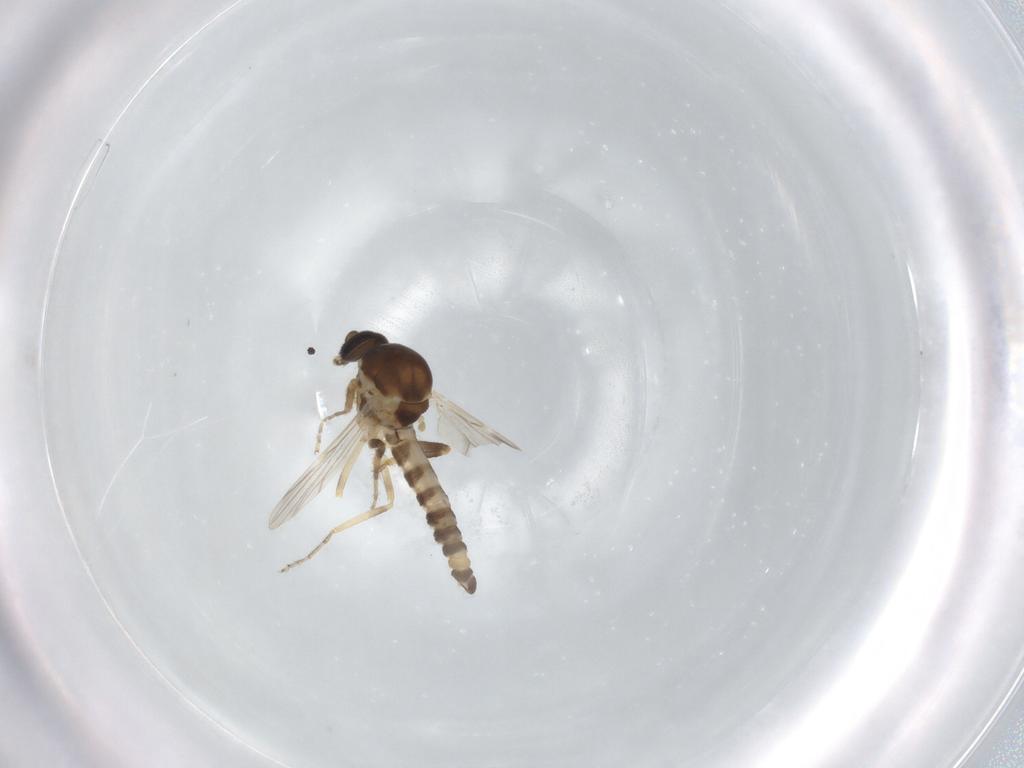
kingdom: Animalia
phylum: Arthropoda
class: Insecta
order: Diptera
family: Ceratopogonidae
